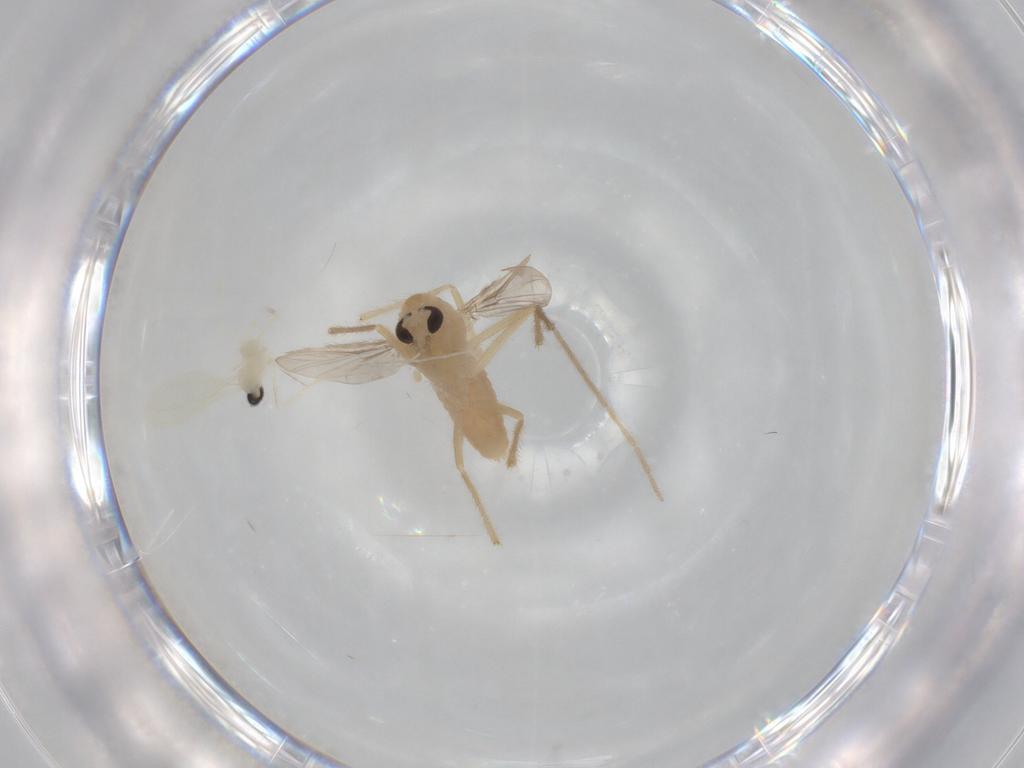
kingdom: Animalia
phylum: Arthropoda
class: Insecta
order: Diptera
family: Chironomidae
